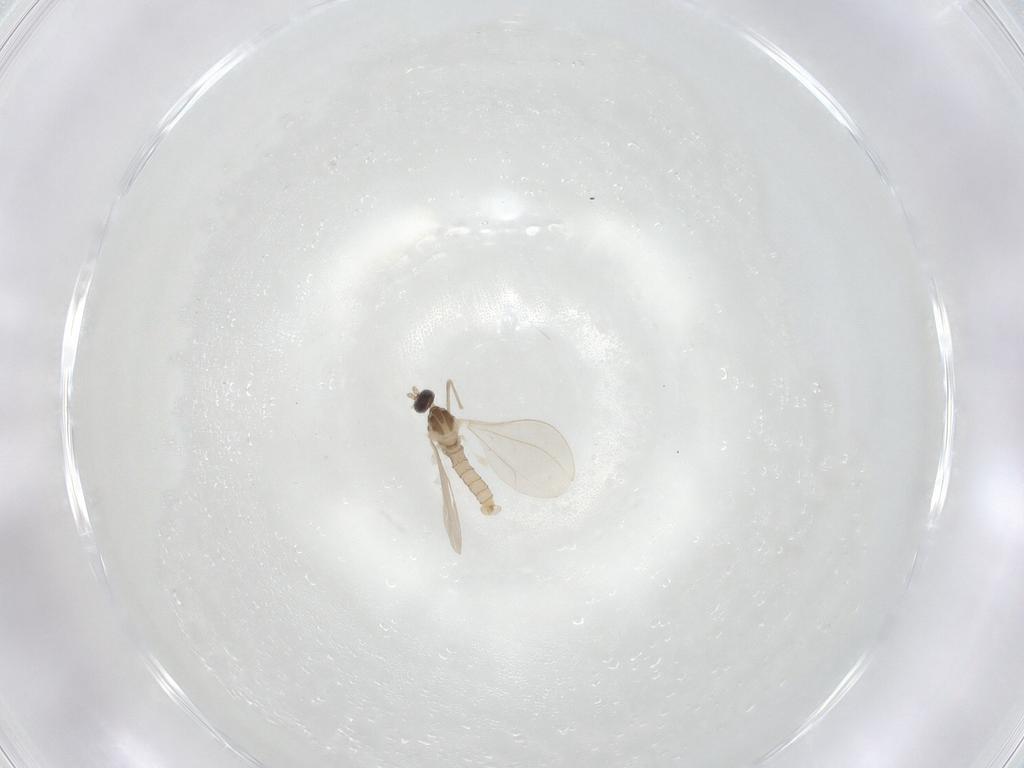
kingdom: Animalia
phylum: Arthropoda
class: Insecta
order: Diptera
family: Cecidomyiidae
